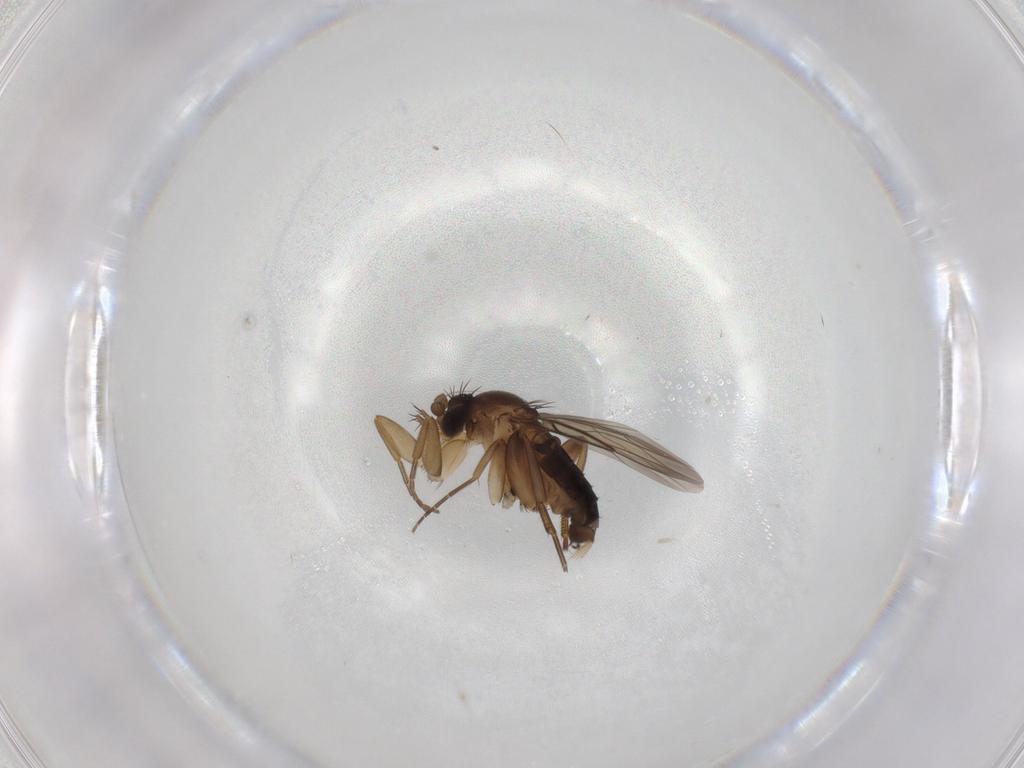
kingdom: Animalia
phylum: Arthropoda
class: Insecta
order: Diptera
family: Phoridae
